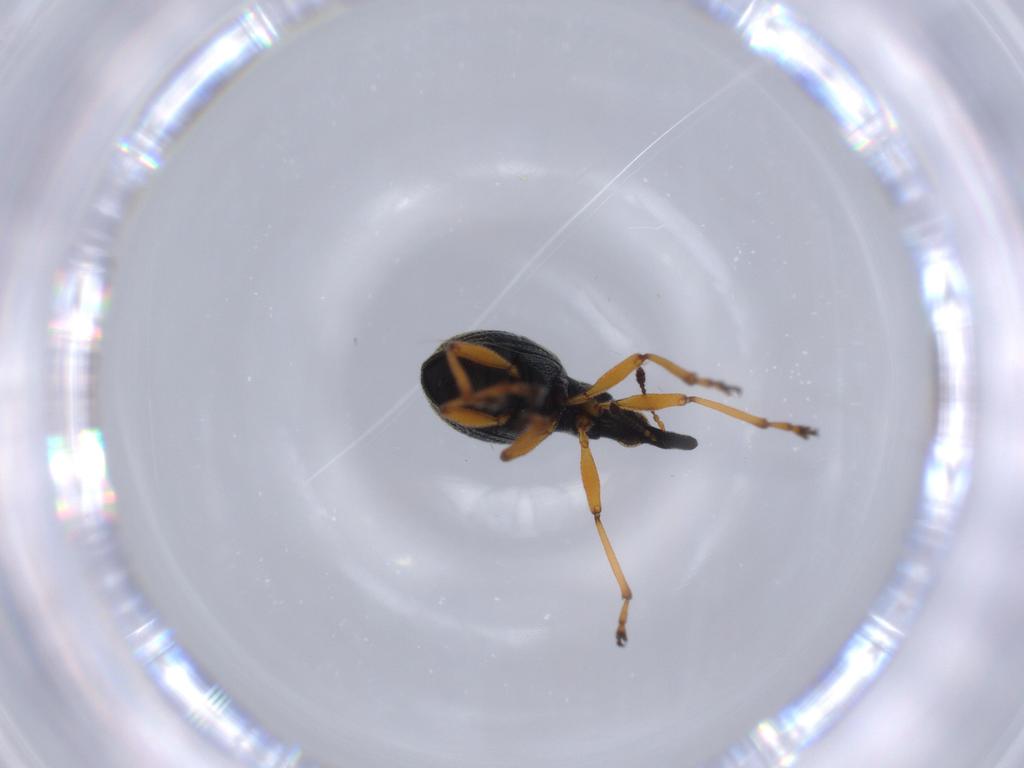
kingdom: Animalia
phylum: Arthropoda
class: Insecta
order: Coleoptera
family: Brentidae
